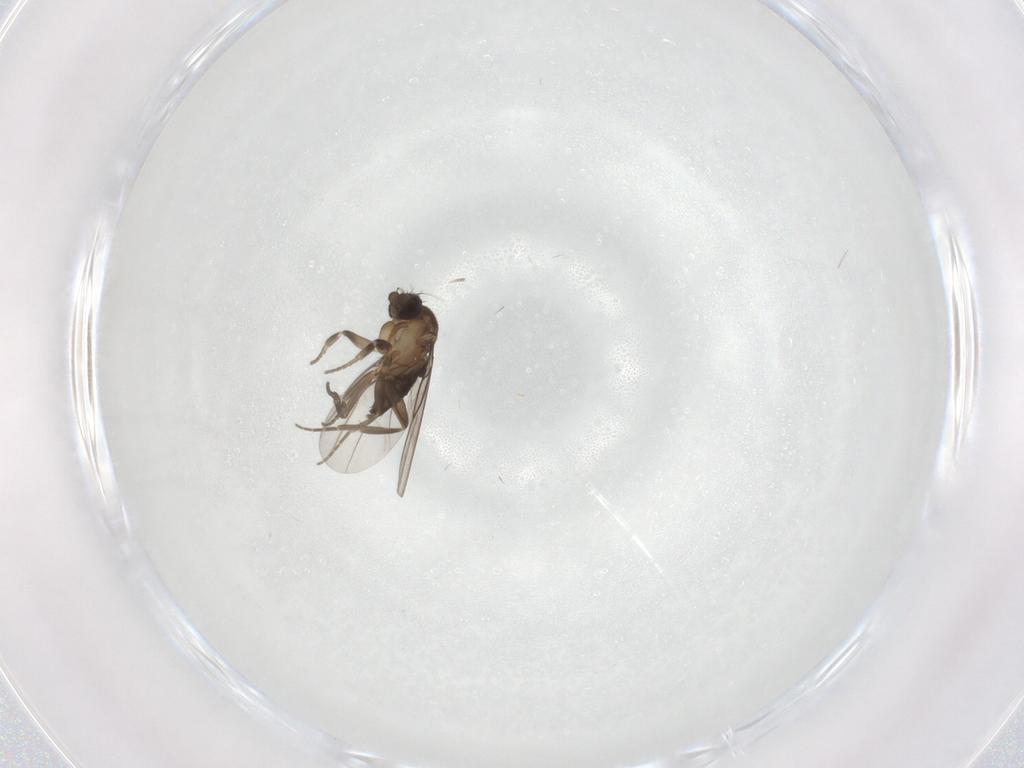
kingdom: Animalia
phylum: Arthropoda
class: Insecta
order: Diptera
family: Phoridae
